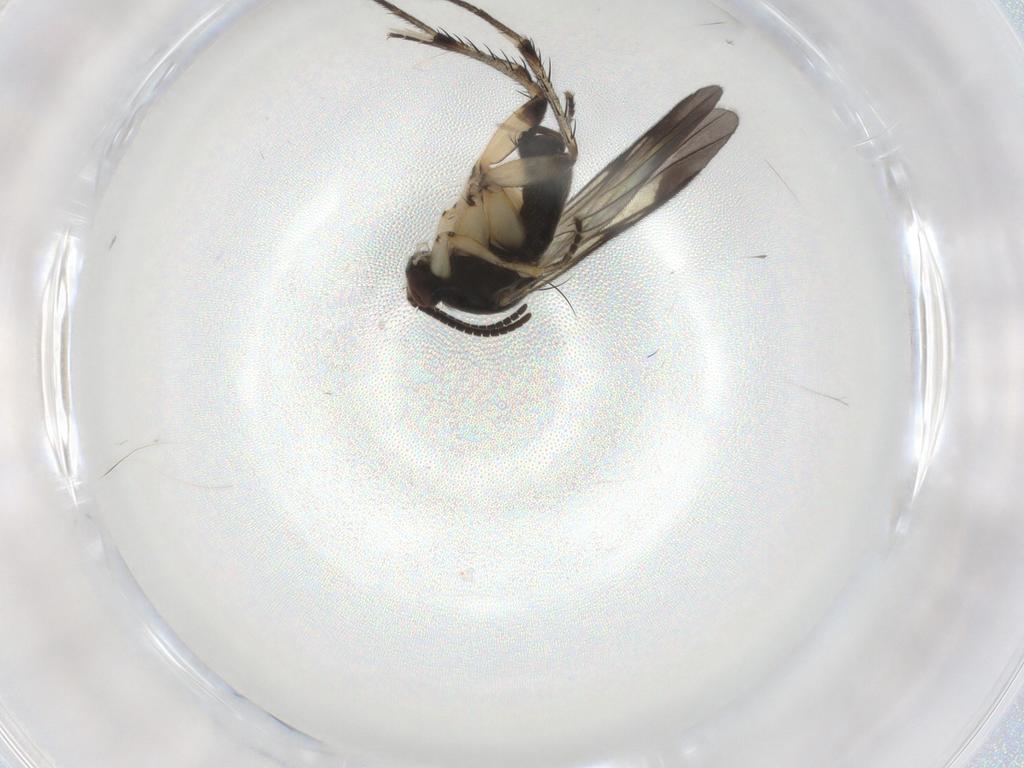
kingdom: Animalia
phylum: Arthropoda
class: Insecta
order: Diptera
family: Mycetophilidae
